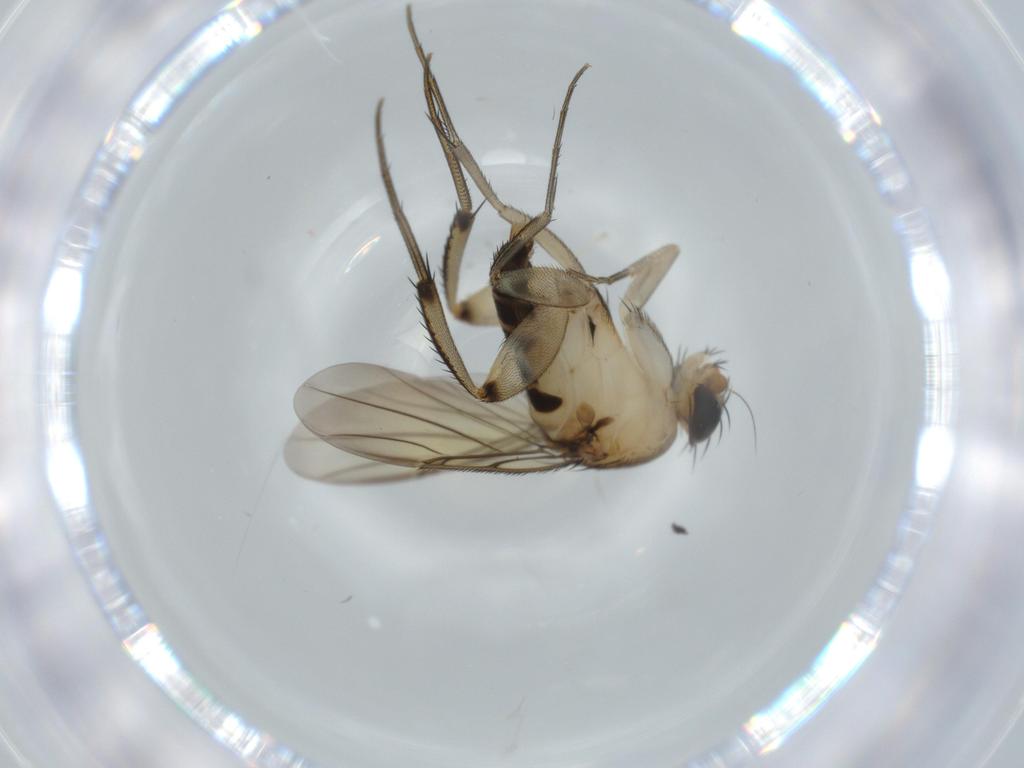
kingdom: Animalia
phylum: Arthropoda
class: Insecta
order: Diptera
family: Phoridae
